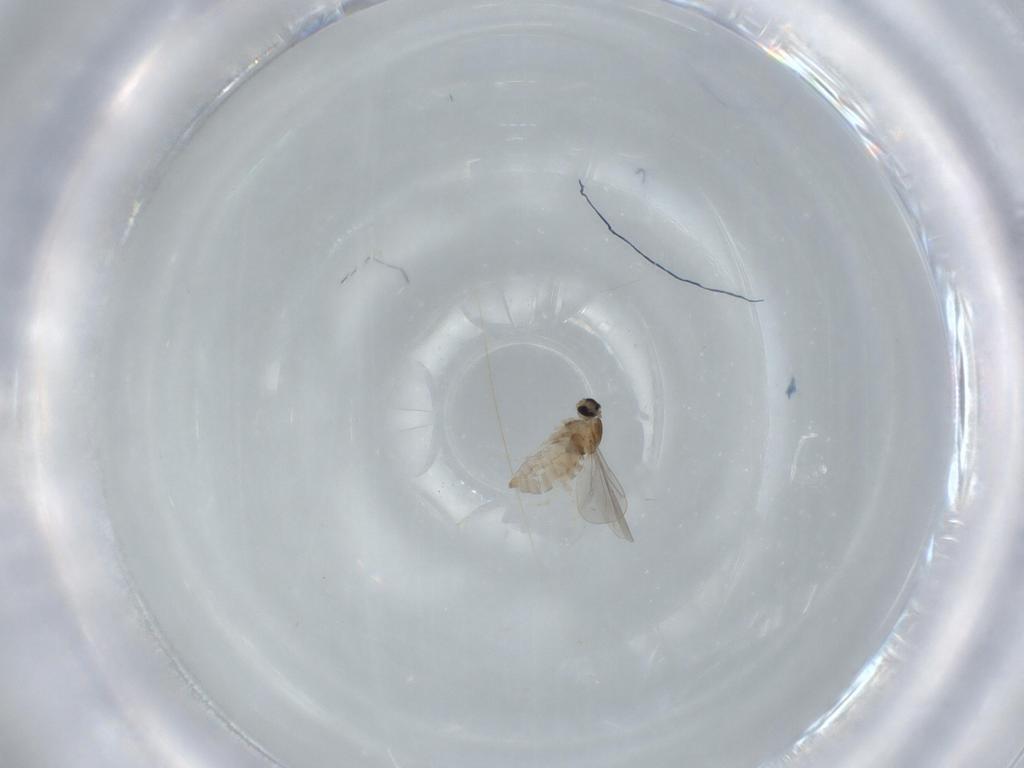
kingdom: Animalia
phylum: Arthropoda
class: Insecta
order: Diptera
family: Cecidomyiidae
